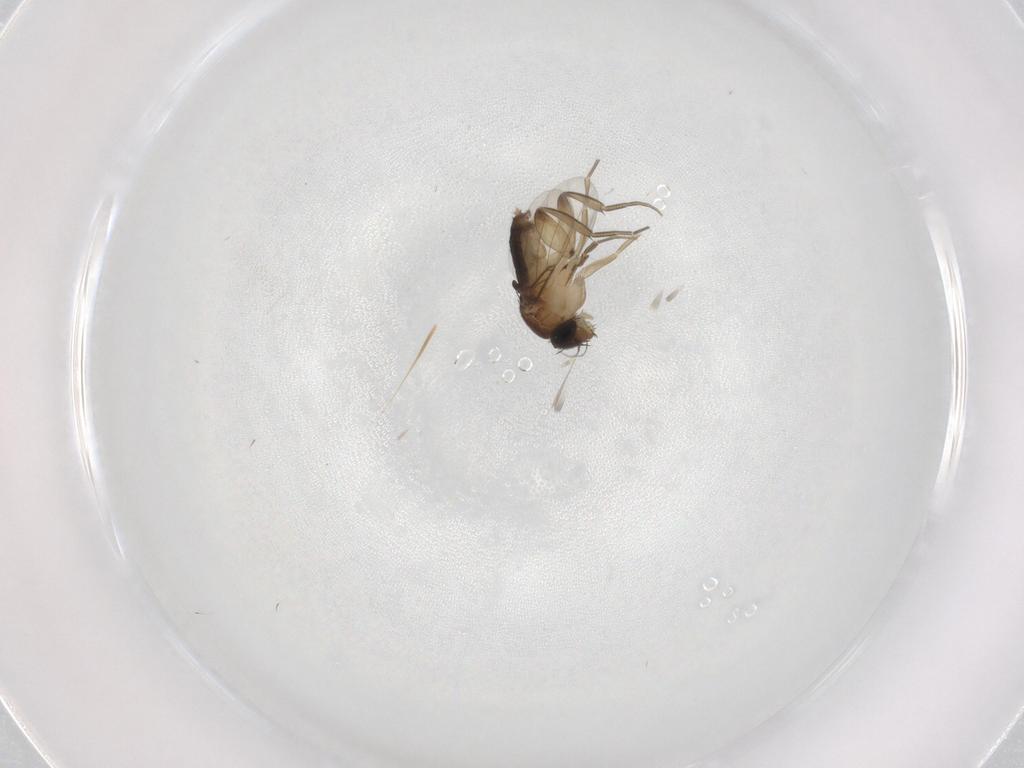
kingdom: Animalia
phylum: Arthropoda
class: Insecta
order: Diptera
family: Phoridae
